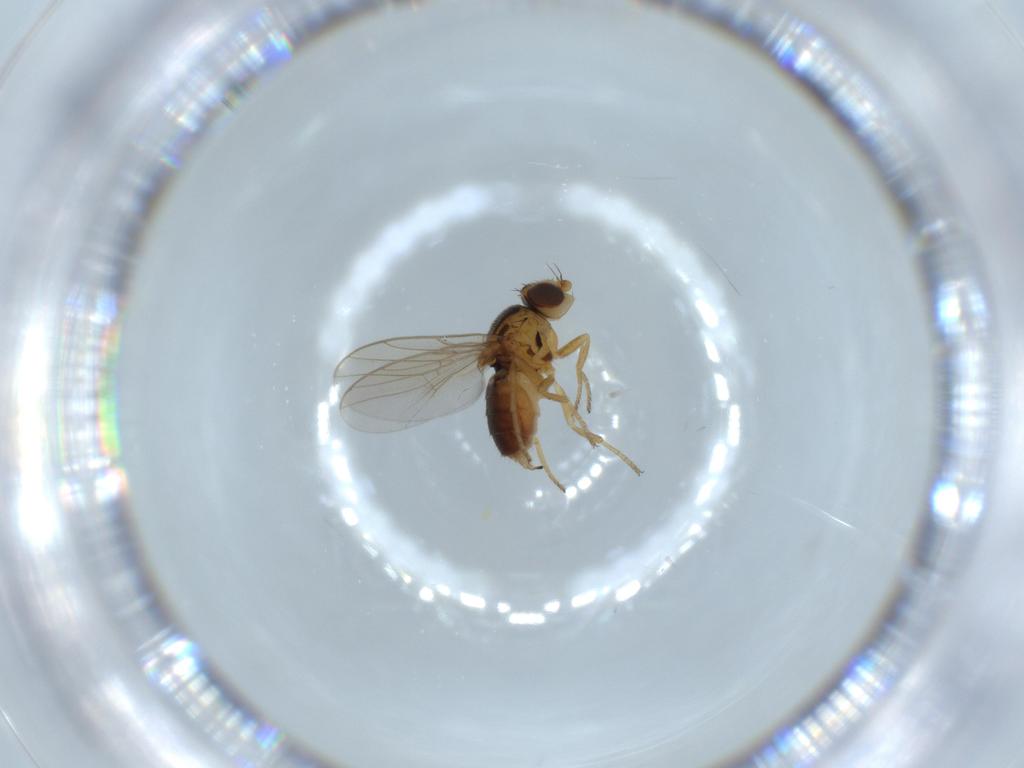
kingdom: Animalia
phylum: Arthropoda
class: Insecta
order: Diptera
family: Chloropidae
